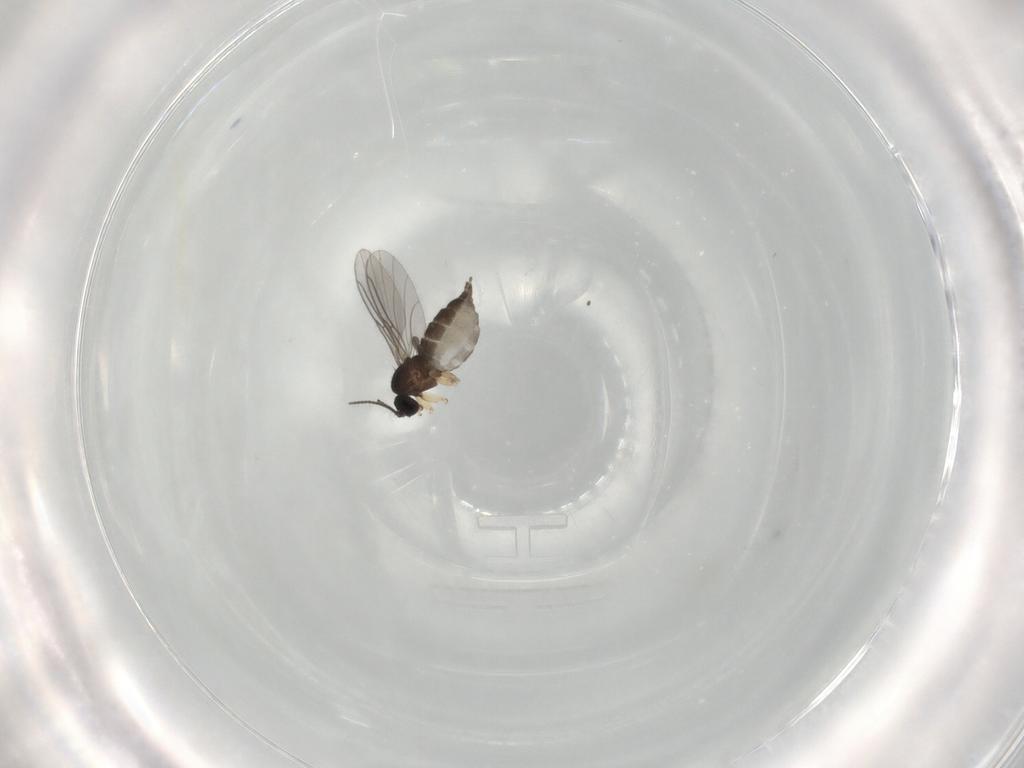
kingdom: Animalia
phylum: Arthropoda
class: Insecta
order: Diptera
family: Sciaridae
